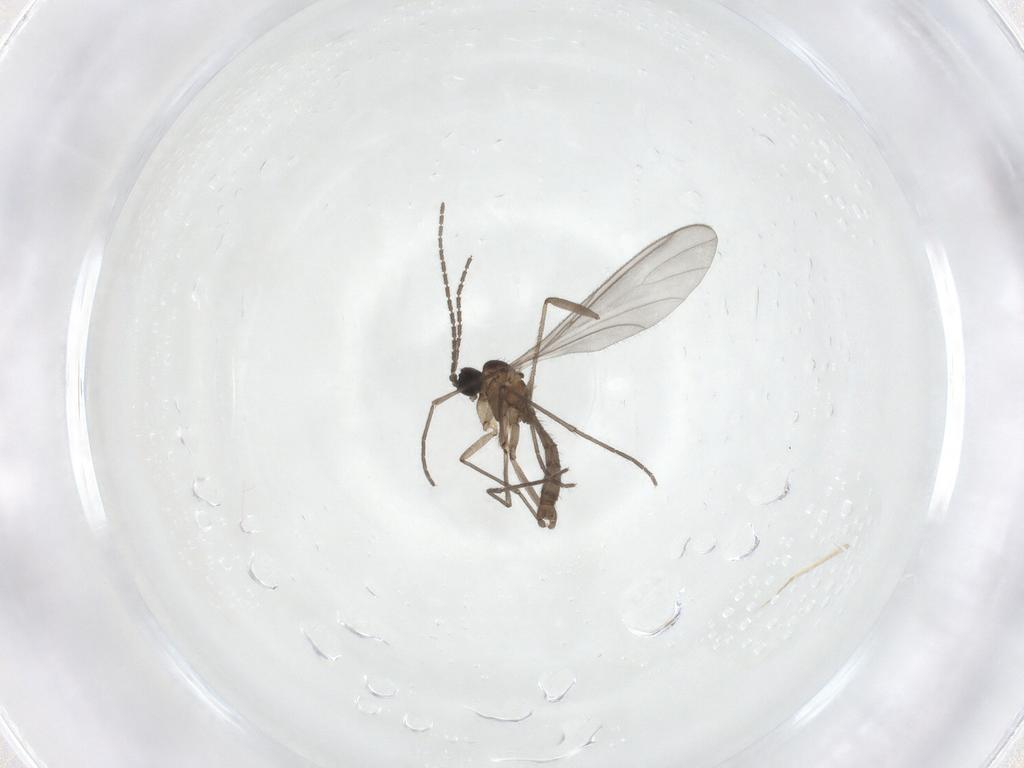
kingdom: Animalia
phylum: Arthropoda
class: Insecta
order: Diptera
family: Sciaridae
